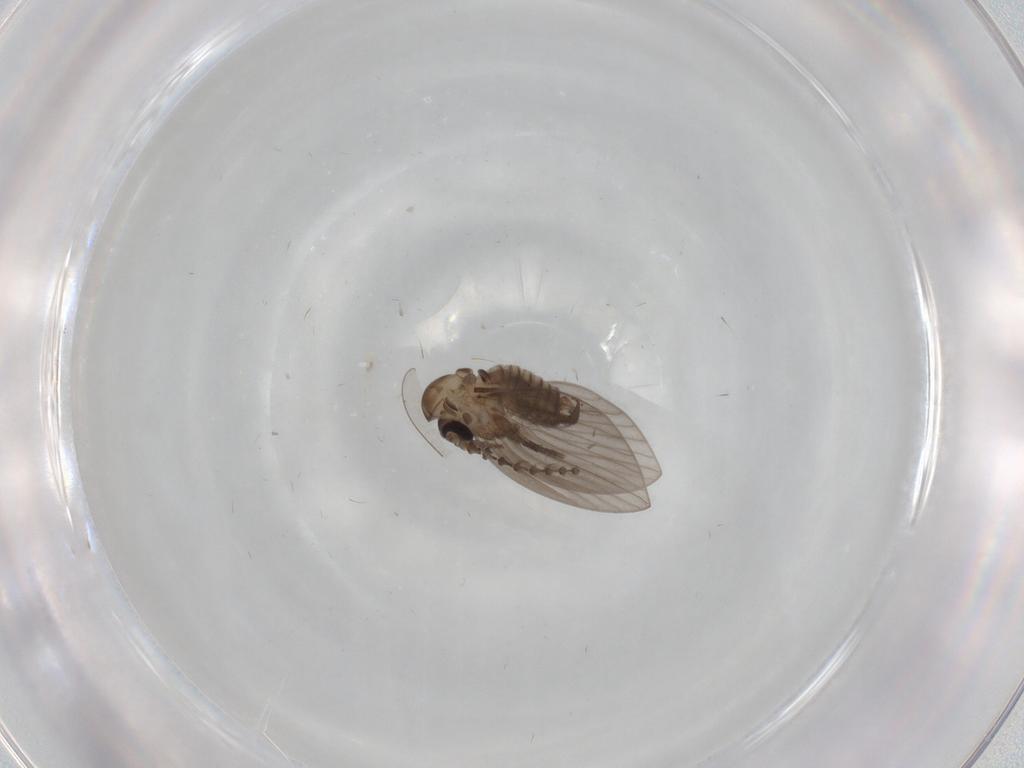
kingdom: Animalia
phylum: Arthropoda
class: Insecta
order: Diptera
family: Psychodidae
